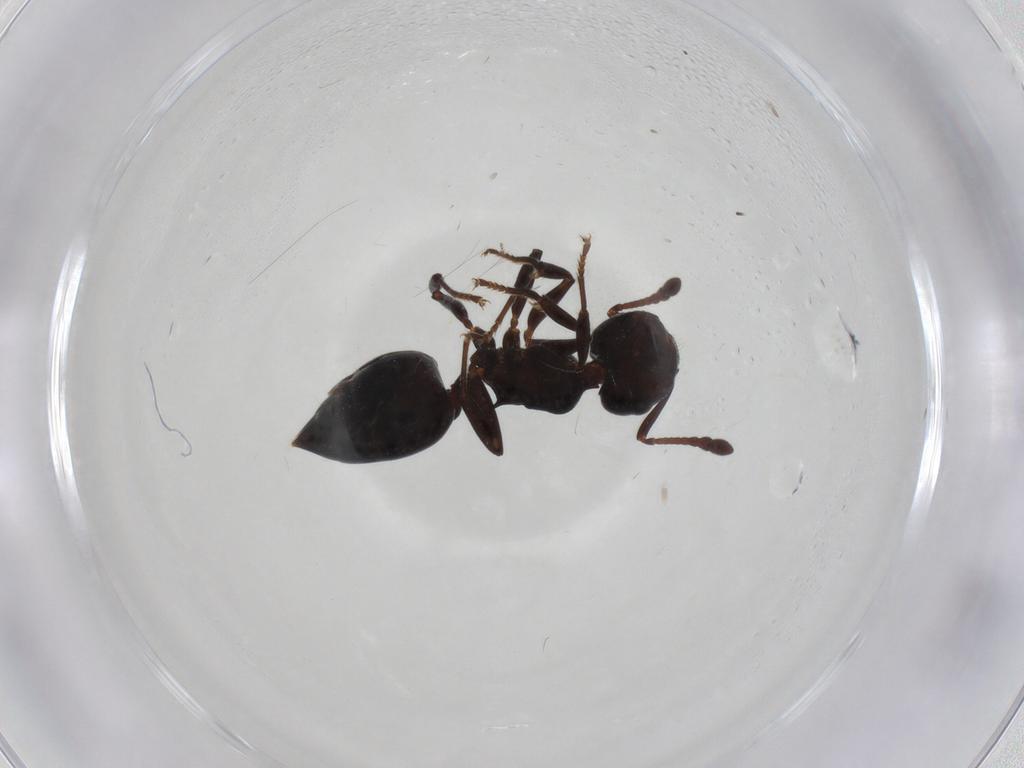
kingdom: Animalia
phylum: Arthropoda
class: Insecta
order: Hymenoptera
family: Formicidae
